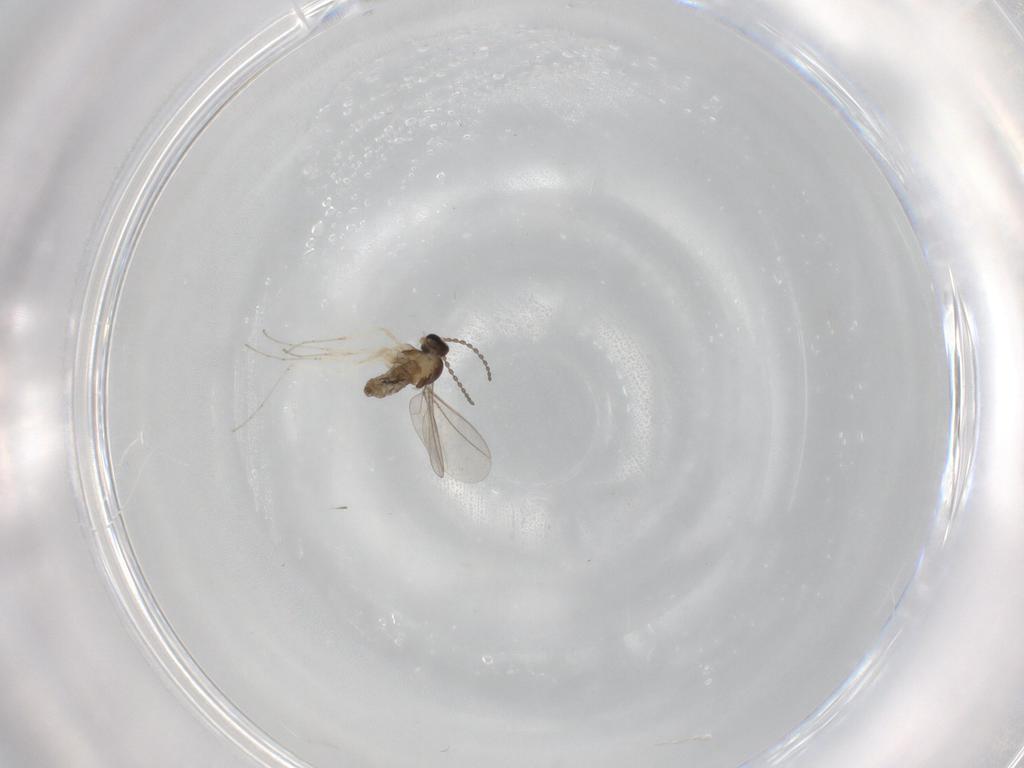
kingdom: Animalia
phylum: Arthropoda
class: Insecta
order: Diptera
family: Cecidomyiidae
